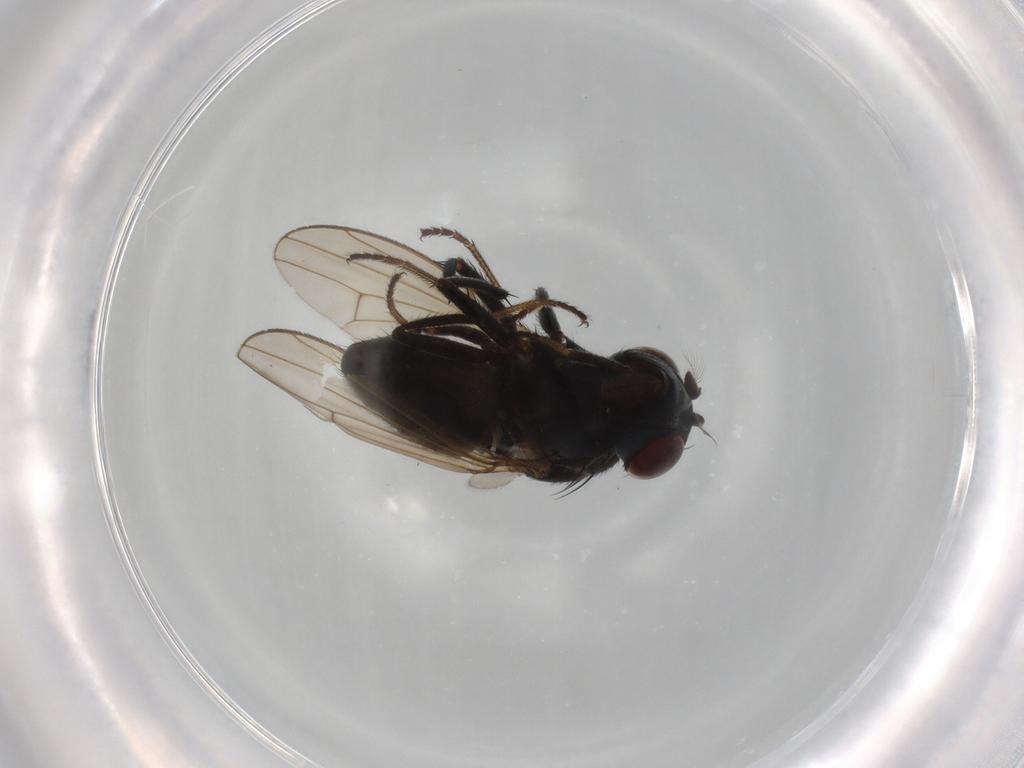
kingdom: Animalia
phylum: Arthropoda
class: Insecta
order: Diptera
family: Ephydridae
